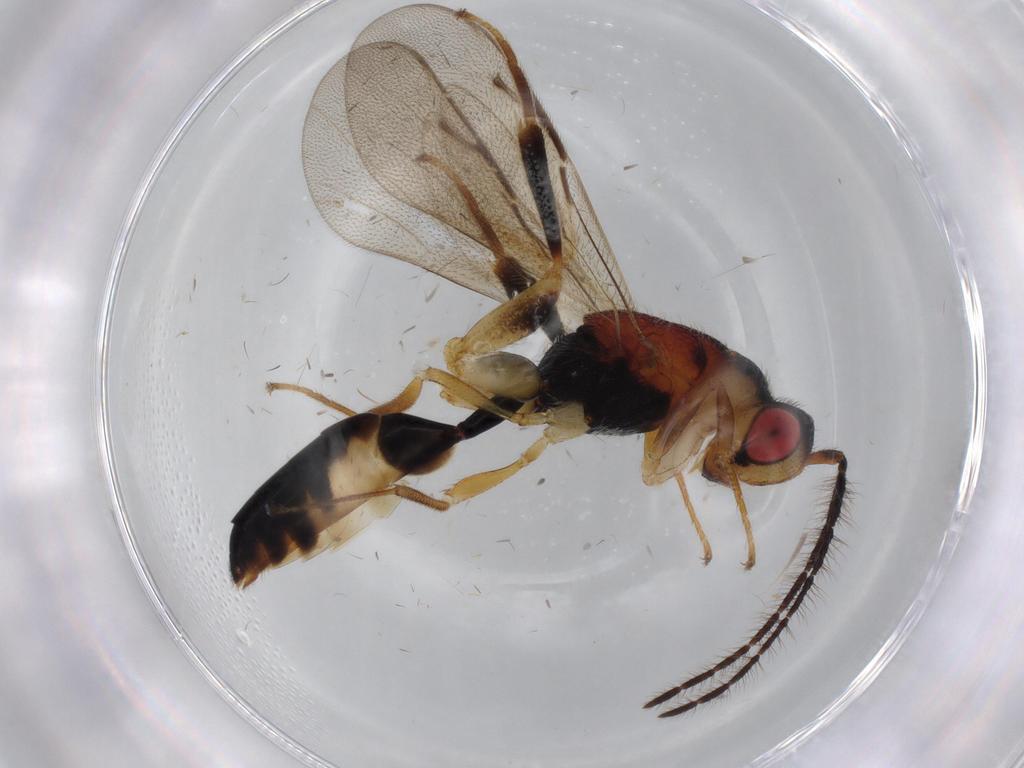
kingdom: Animalia
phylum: Arthropoda
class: Insecta
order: Hymenoptera
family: Eurytomidae
